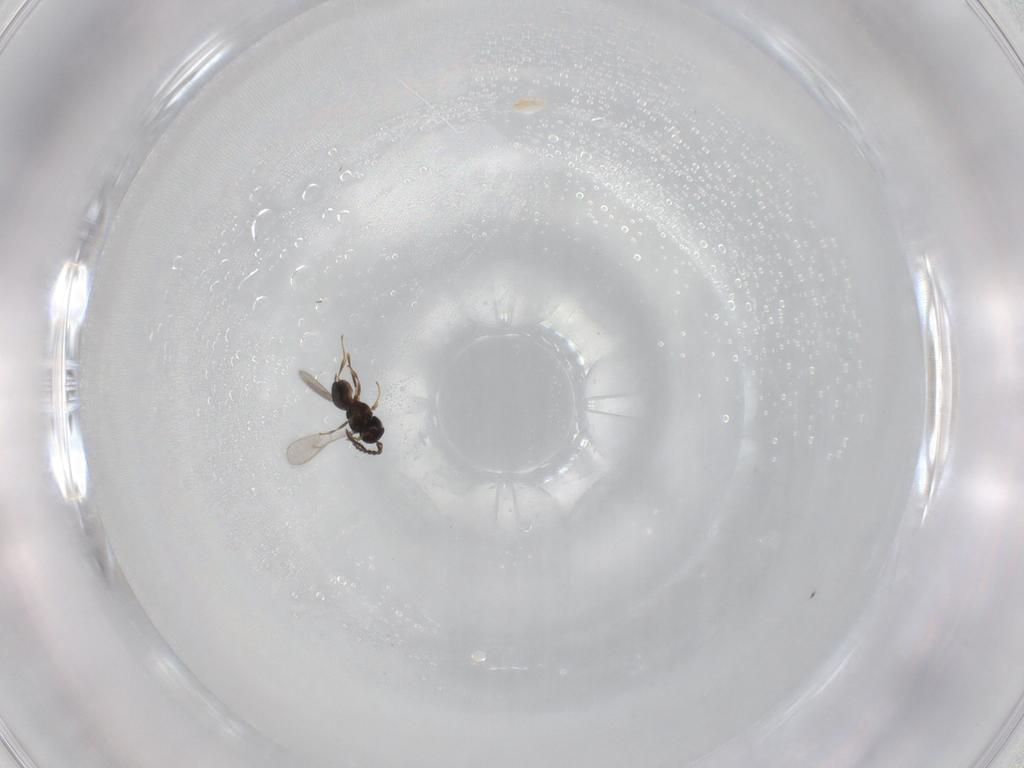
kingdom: Animalia
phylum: Arthropoda
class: Insecta
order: Hymenoptera
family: Scelionidae
